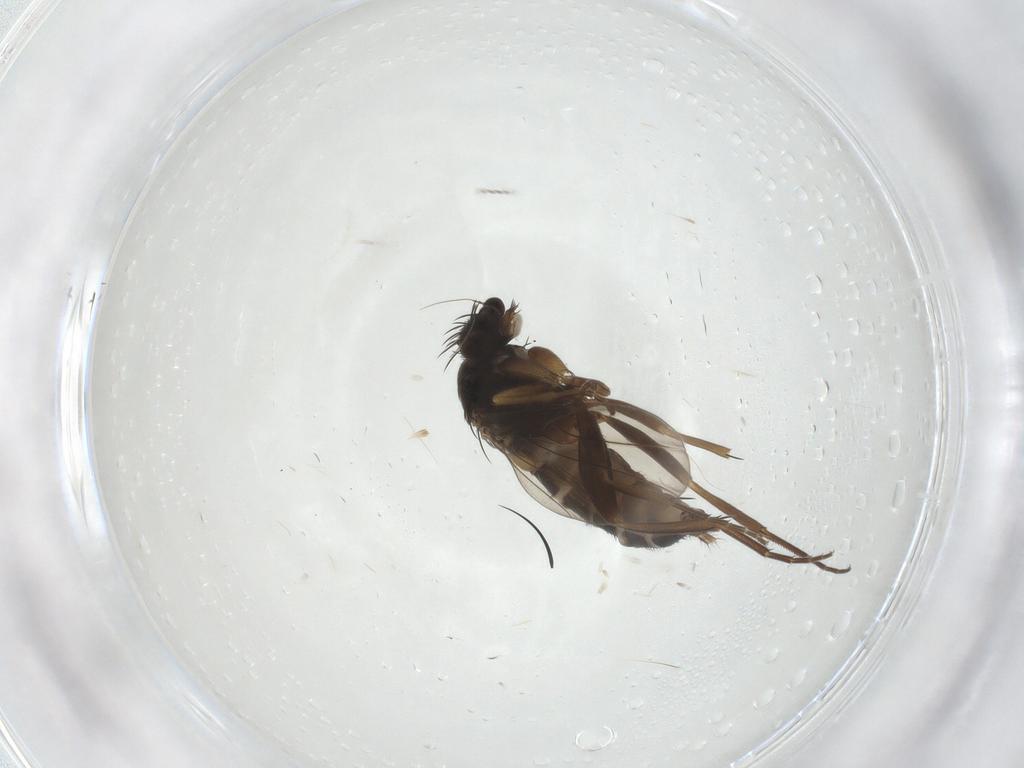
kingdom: Animalia
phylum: Arthropoda
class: Insecta
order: Diptera
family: Phoridae
